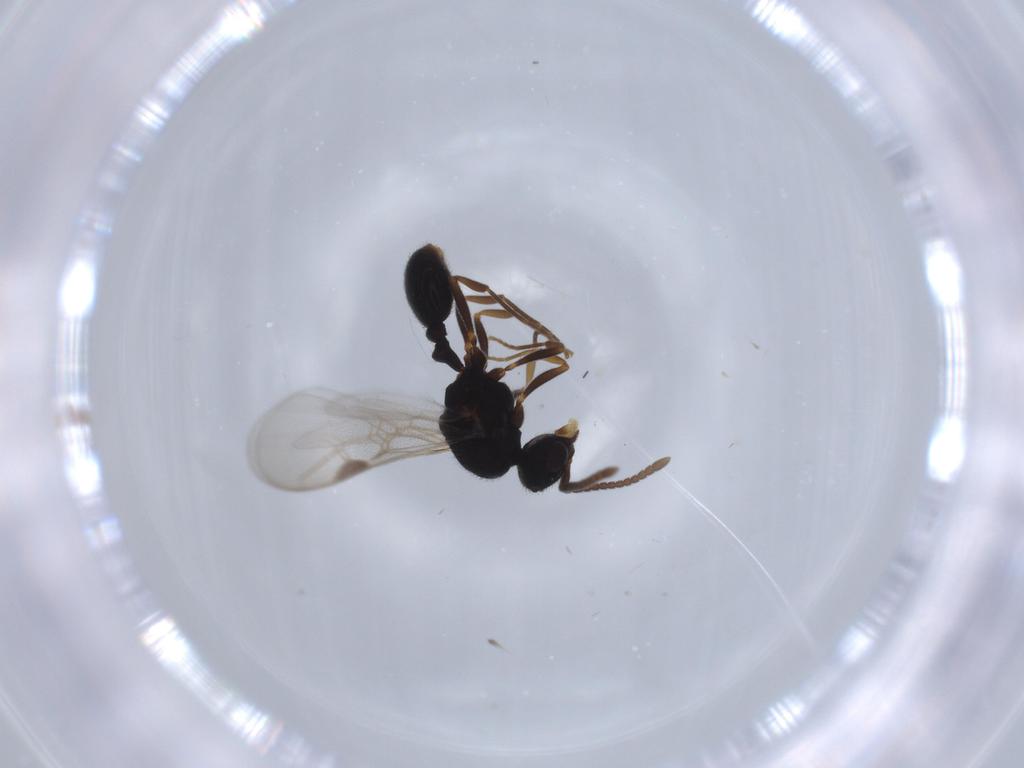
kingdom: Animalia
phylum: Arthropoda
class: Insecta
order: Hymenoptera
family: Formicidae
